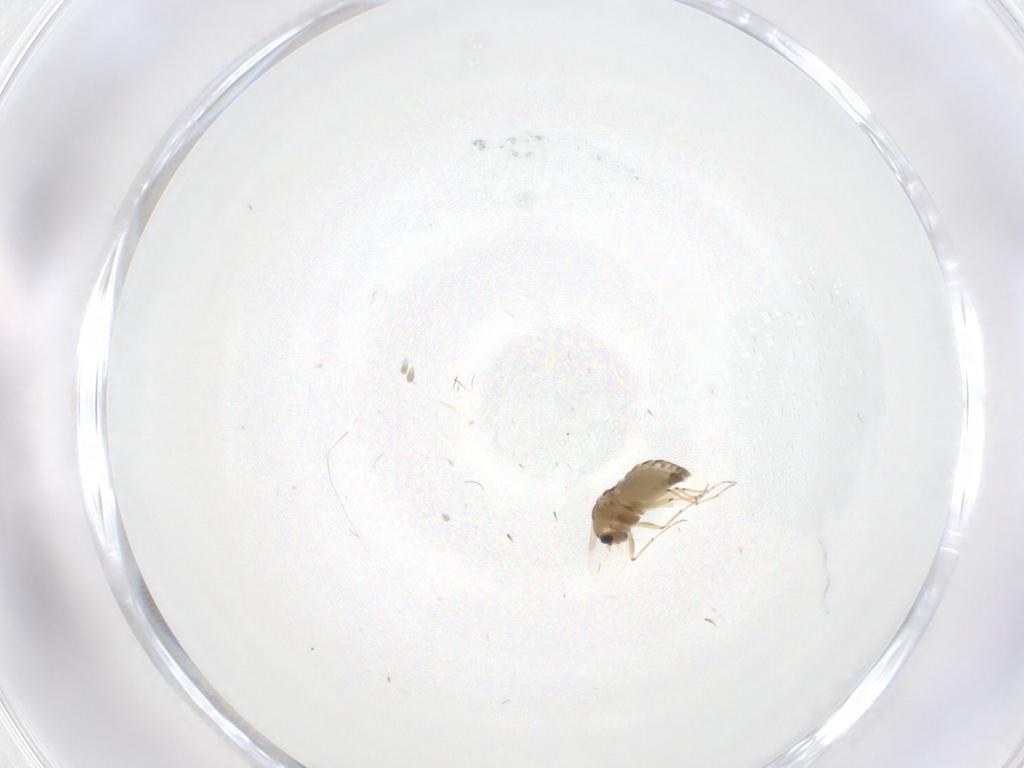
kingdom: Animalia
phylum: Arthropoda
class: Insecta
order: Diptera
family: Chironomidae
